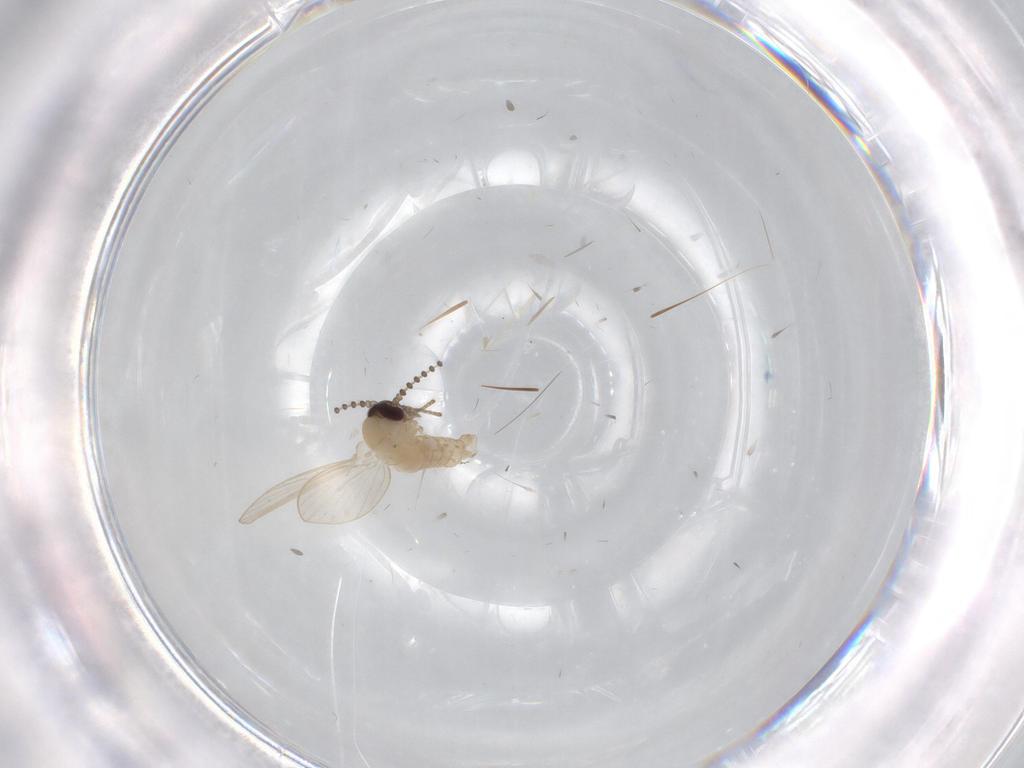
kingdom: Animalia
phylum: Arthropoda
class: Insecta
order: Diptera
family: Psychodidae
